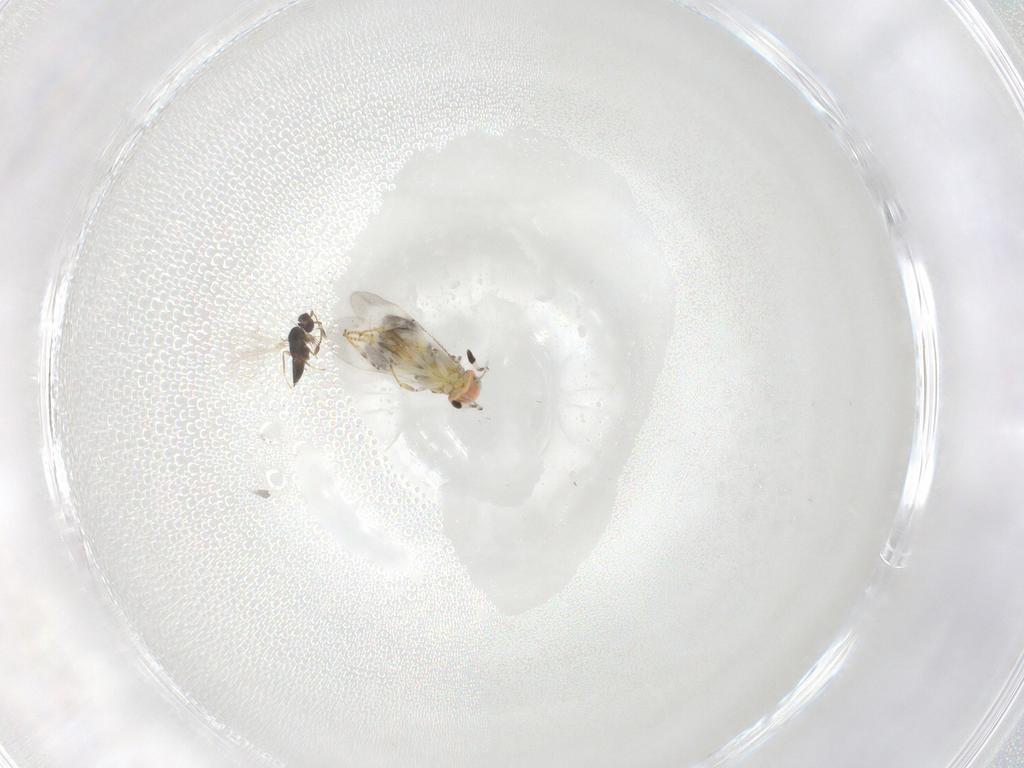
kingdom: Animalia
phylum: Arthropoda
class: Insecta
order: Hymenoptera
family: Encyrtidae
